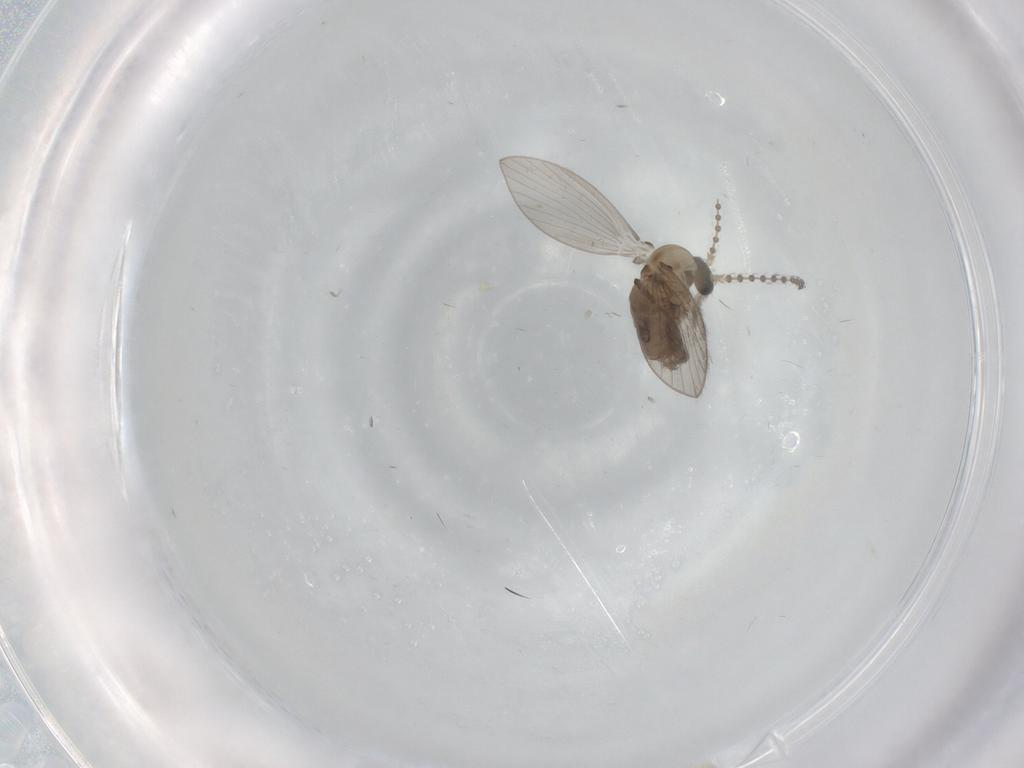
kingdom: Animalia
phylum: Arthropoda
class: Insecta
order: Diptera
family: Psychodidae
